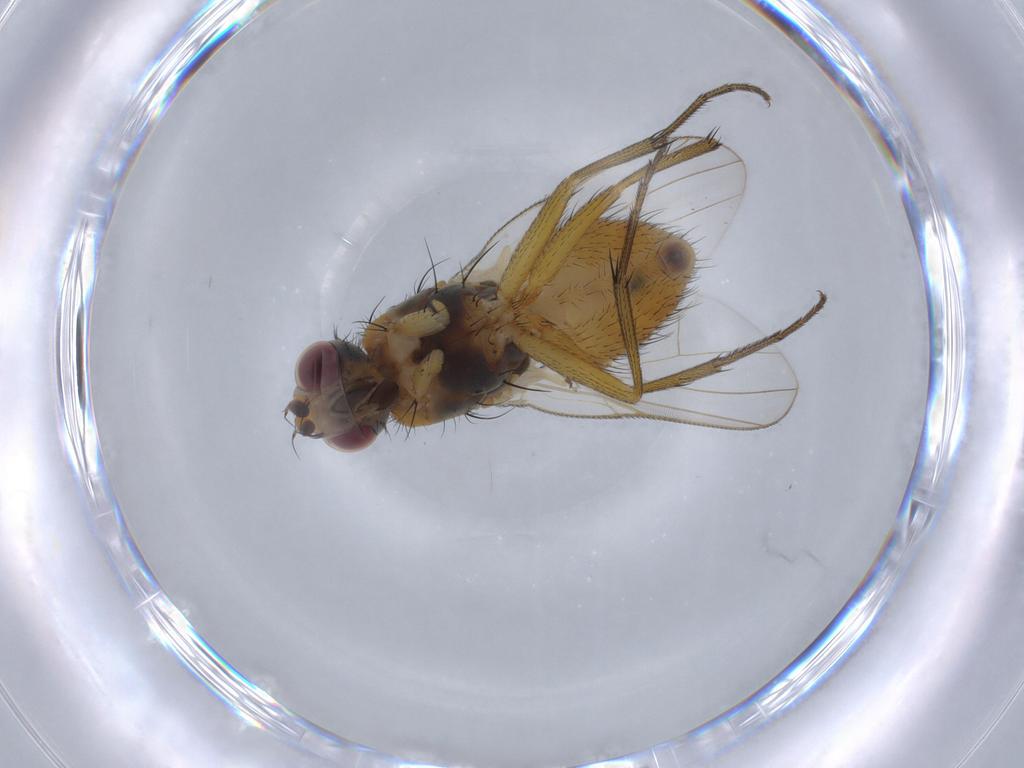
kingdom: Animalia
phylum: Arthropoda
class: Insecta
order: Diptera
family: Muscidae
